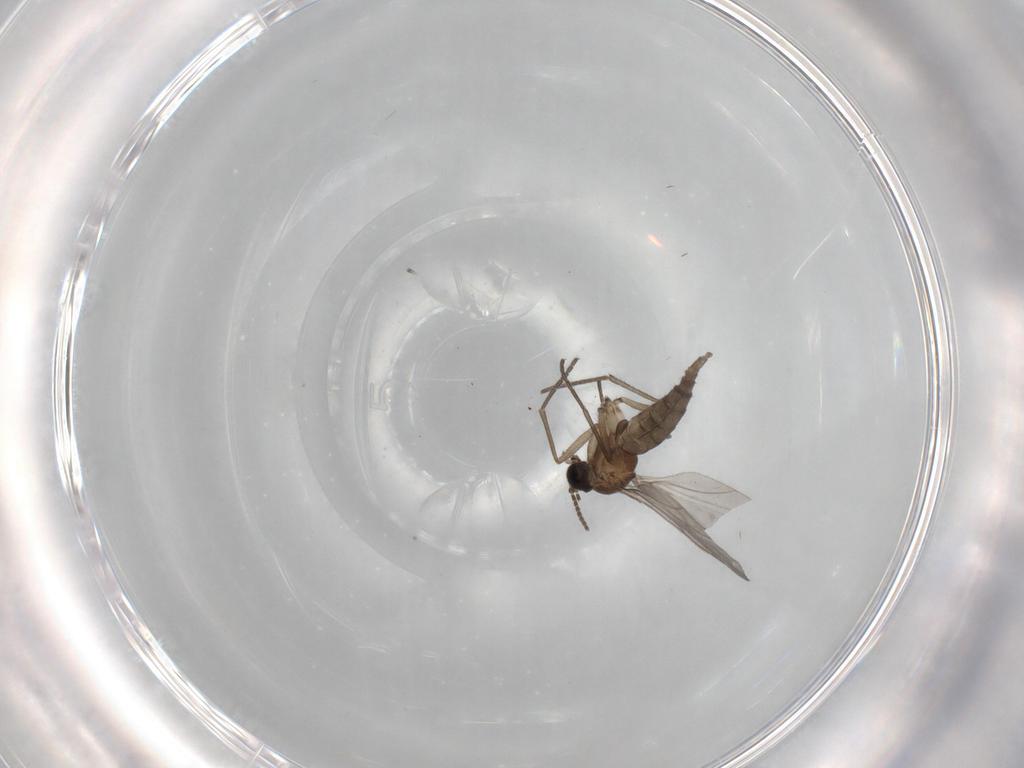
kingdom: Animalia
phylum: Arthropoda
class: Insecta
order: Diptera
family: Sciaridae
